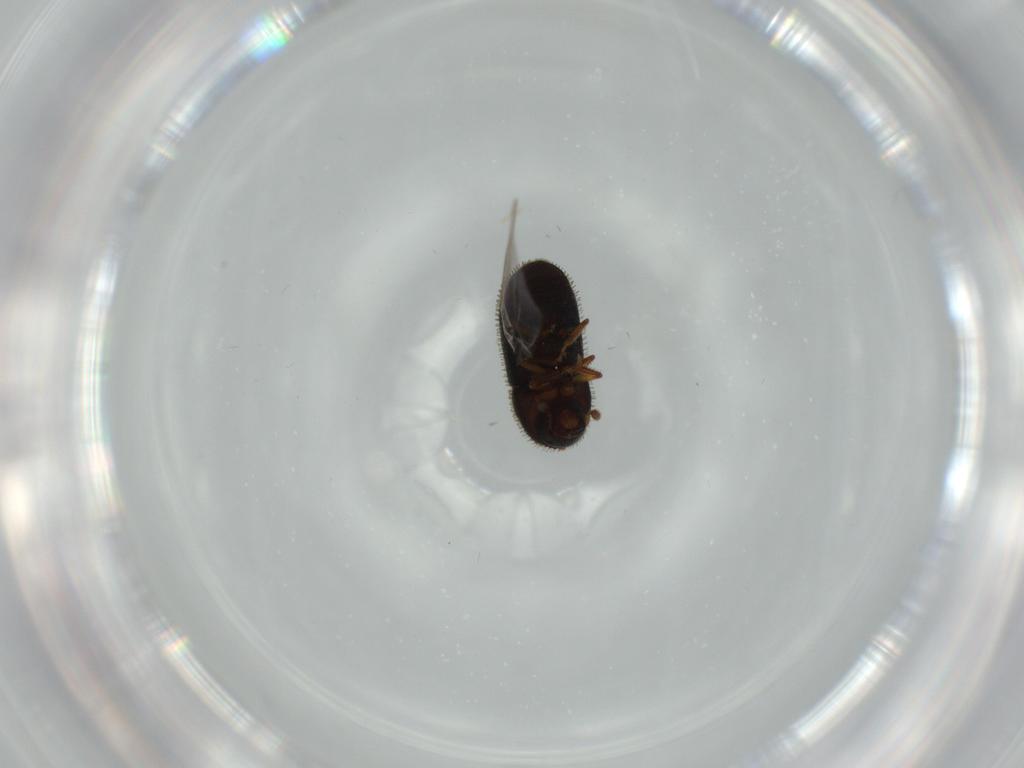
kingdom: Animalia
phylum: Arthropoda
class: Insecta
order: Coleoptera
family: Curculionidae
